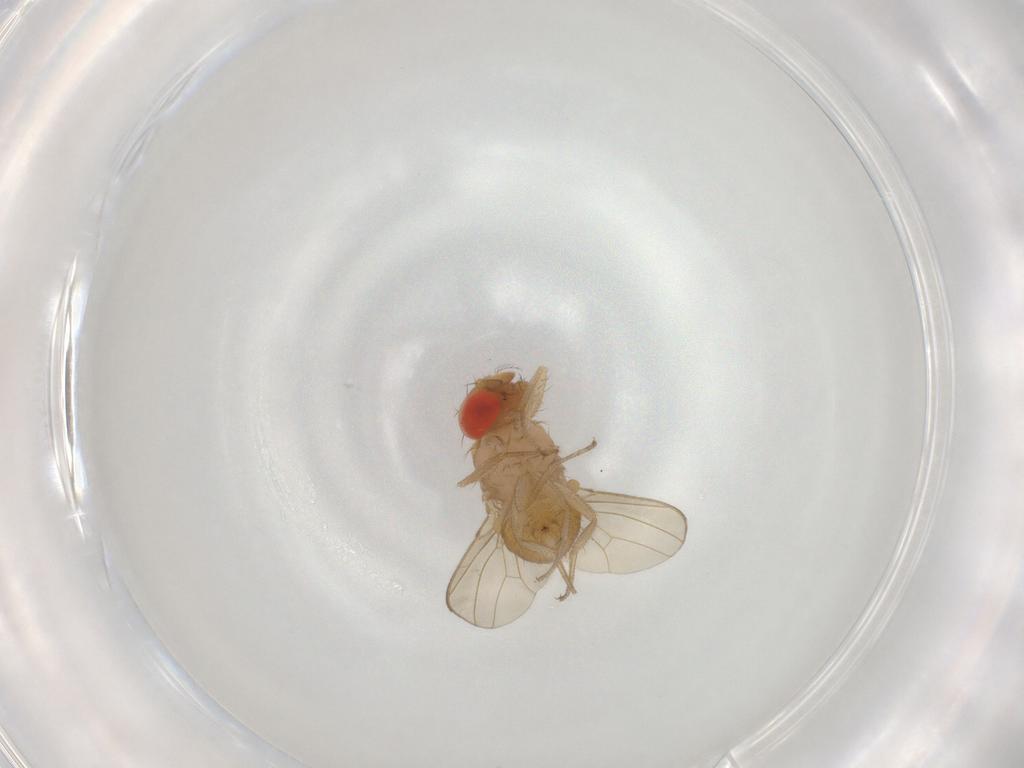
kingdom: Animalia
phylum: Arthropoda
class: Insecta
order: Diptera
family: Drosophilidae
